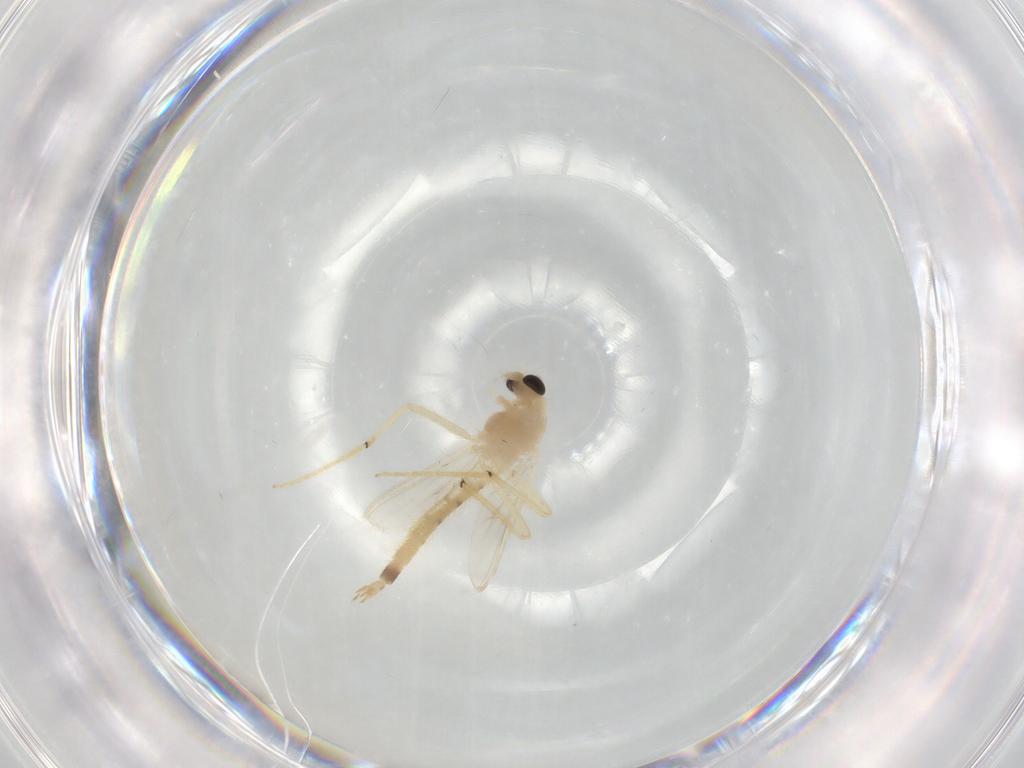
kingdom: Animalia
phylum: Arthropoda
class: Insecta
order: Diptera
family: Chironomidae
